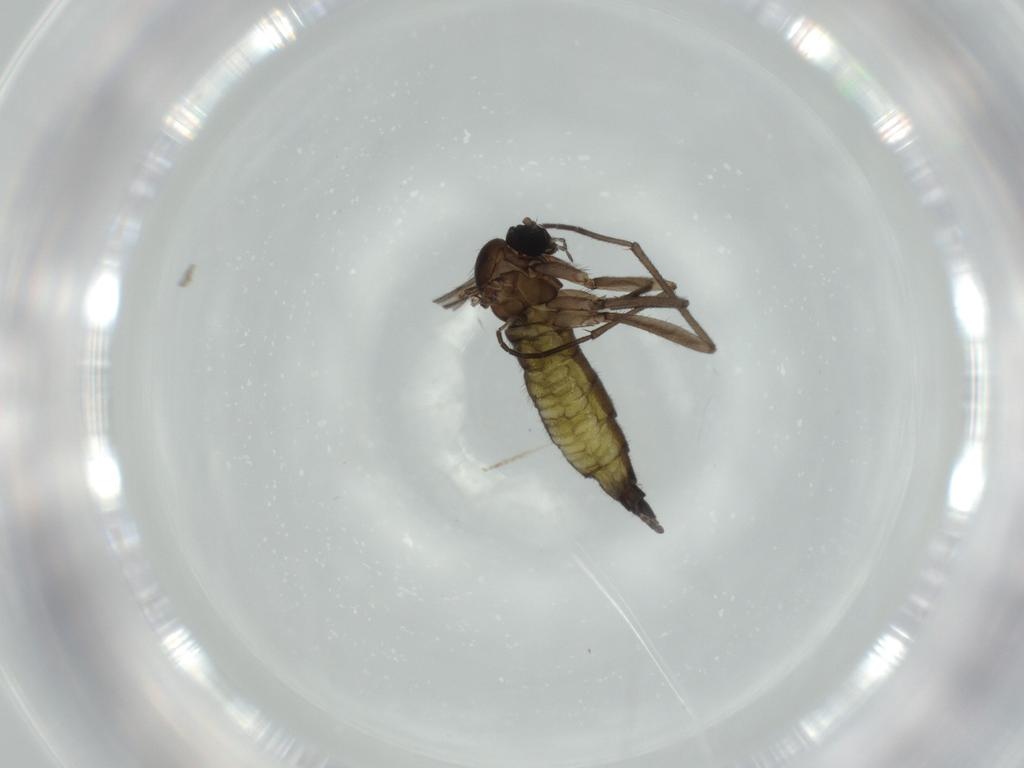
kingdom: Animalia
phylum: Arthropoda
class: Insecta
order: Diptera
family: Sciaridae
